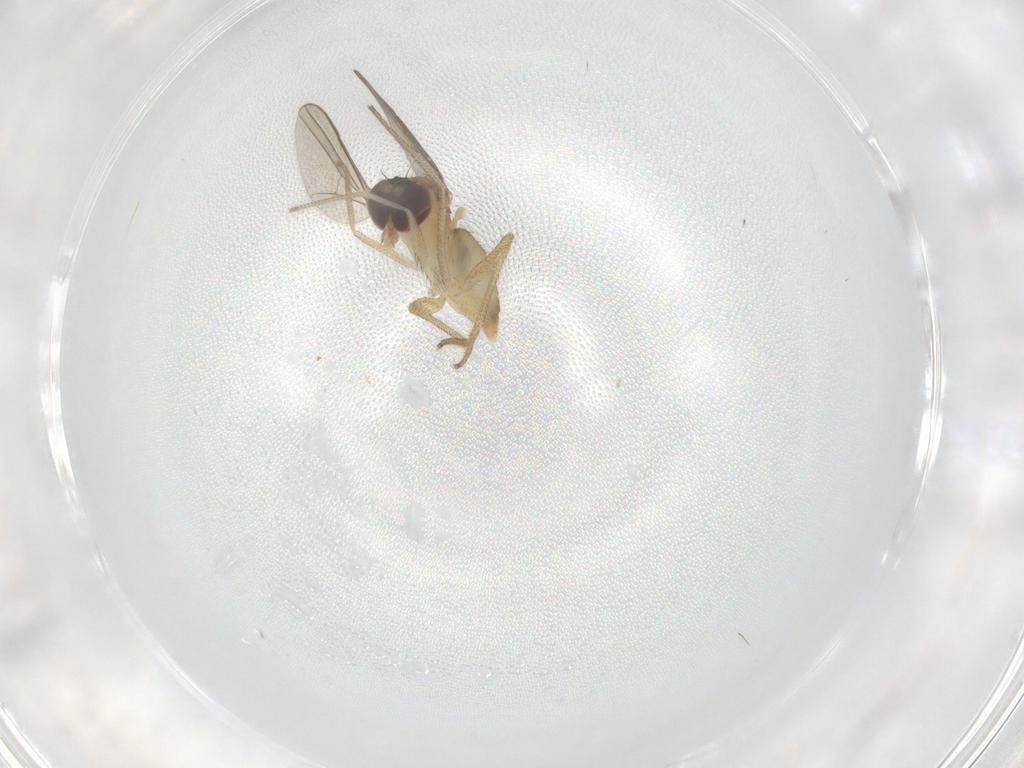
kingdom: Animalia
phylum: Arthropoda
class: Insecta
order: Diptera
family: Dolichopodidae
